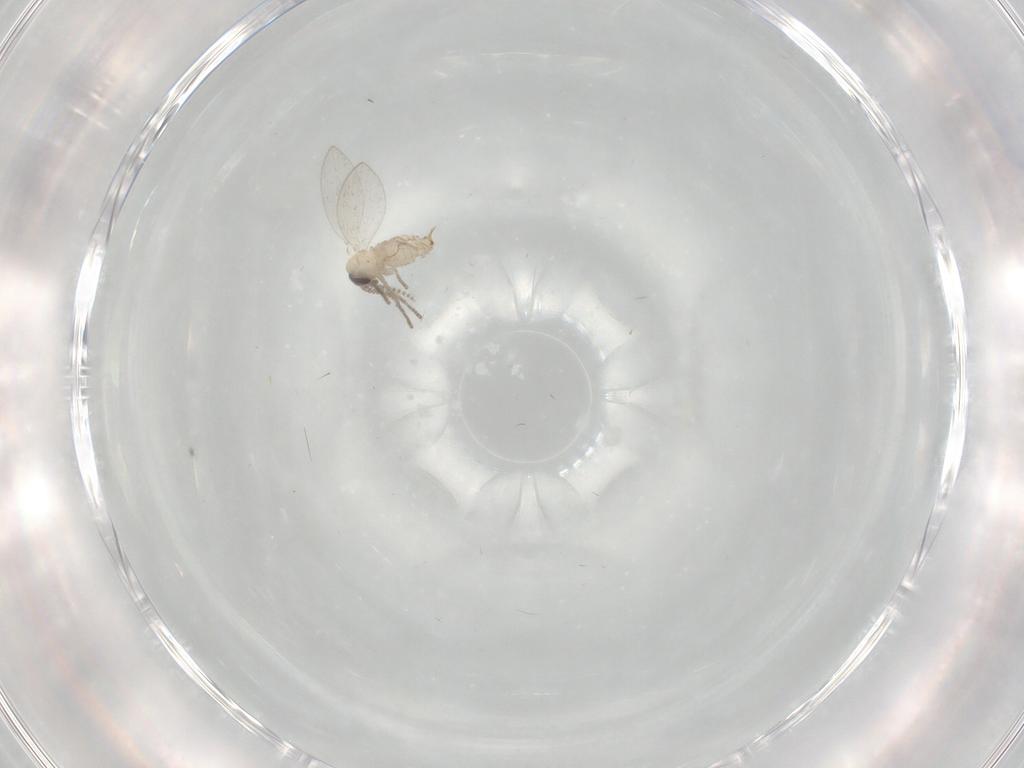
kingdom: Animalia
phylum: Arthropoda
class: Insecta
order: Diptera
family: Psychodidae
